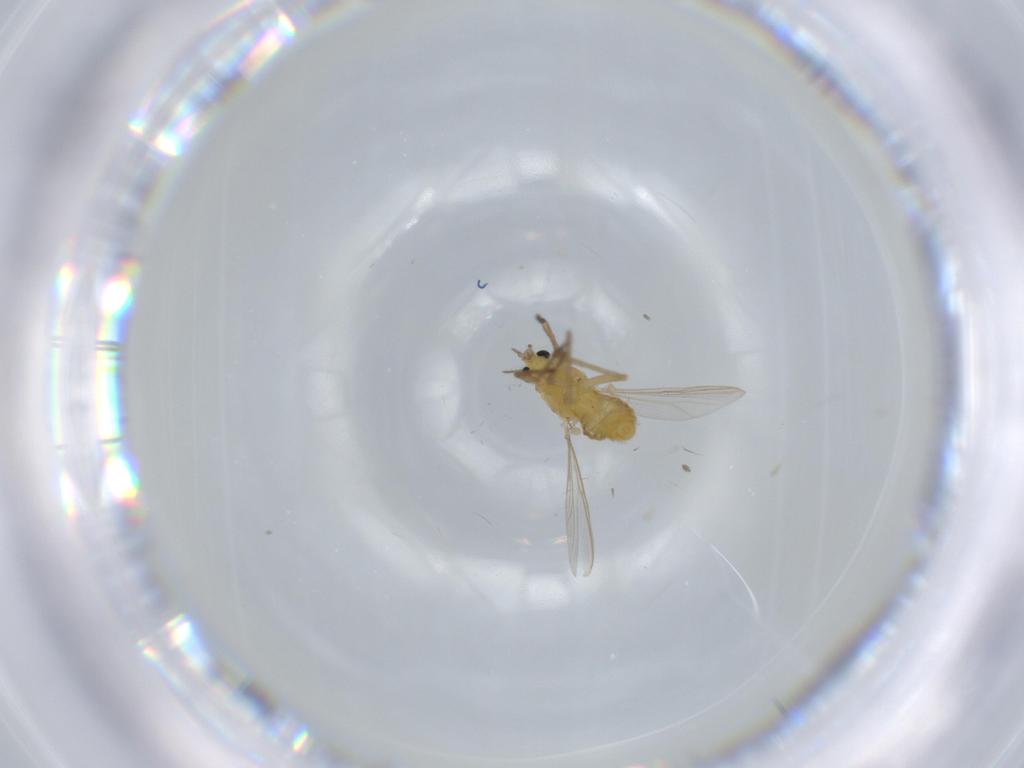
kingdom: Animalia
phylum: Arthropoda
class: Insecta
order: Diptera
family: Chironomidae
